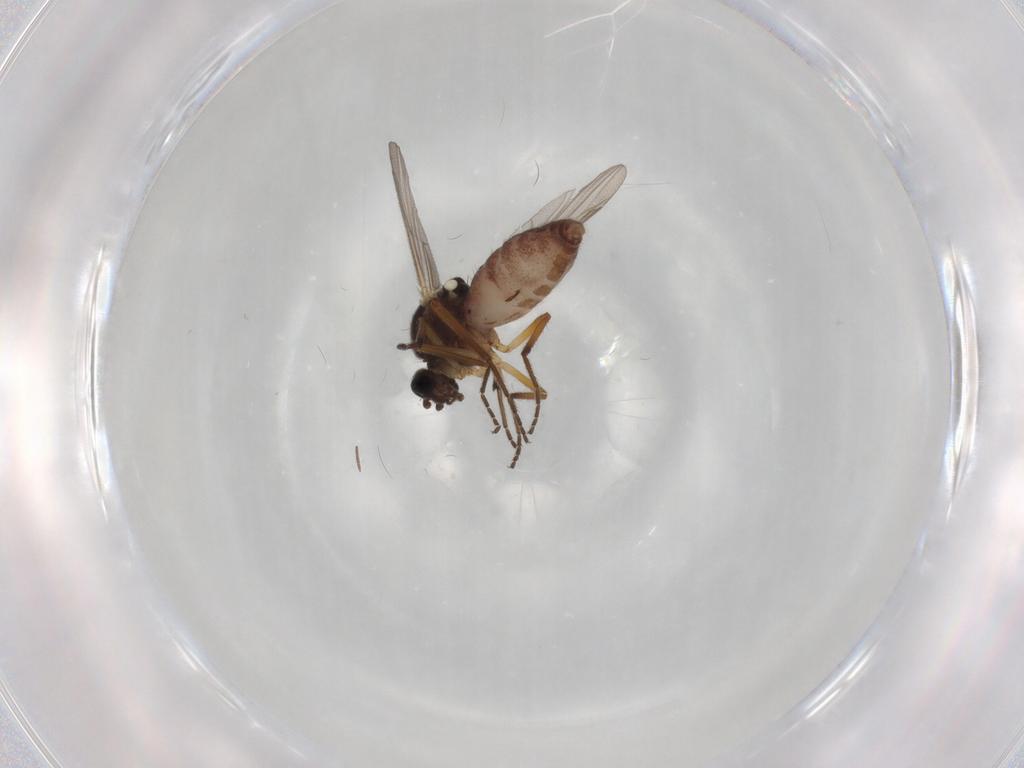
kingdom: Animalia
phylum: Arthropoda
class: Insecta
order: Diptera
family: Ceratopogonidae
